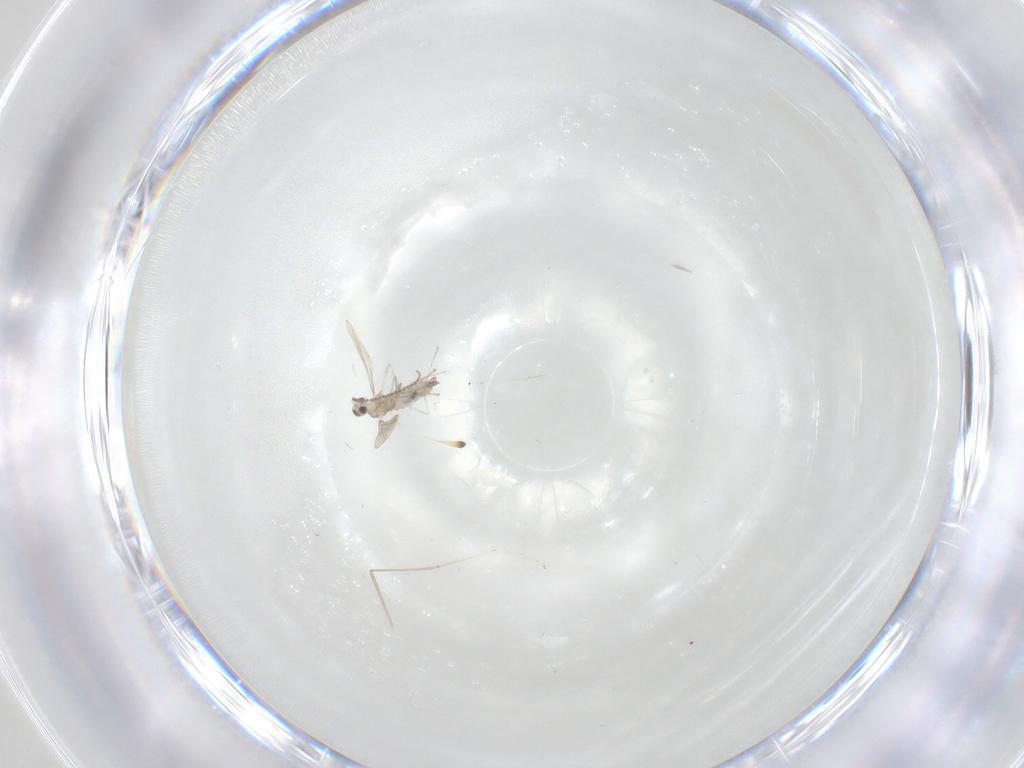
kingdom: Animalia
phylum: Arthropoda
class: Insecta
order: Diptera
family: Cecidomyiidae
